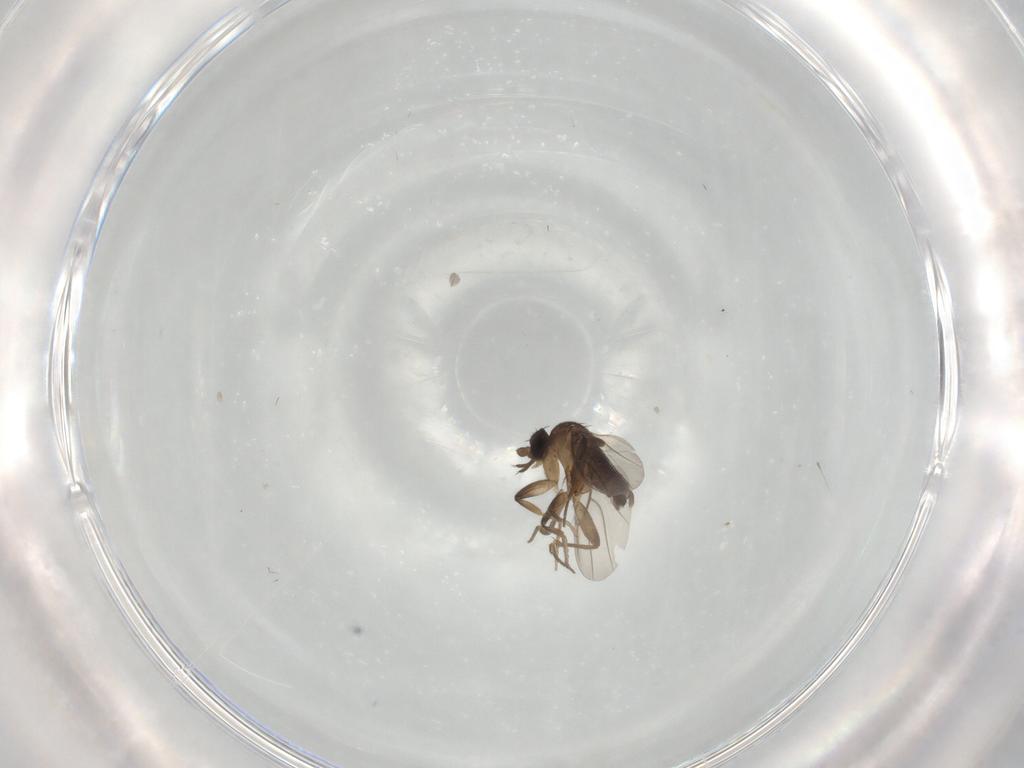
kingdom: Animalia
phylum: Arthropoda
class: Insecta
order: Diptera
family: Phoridae
